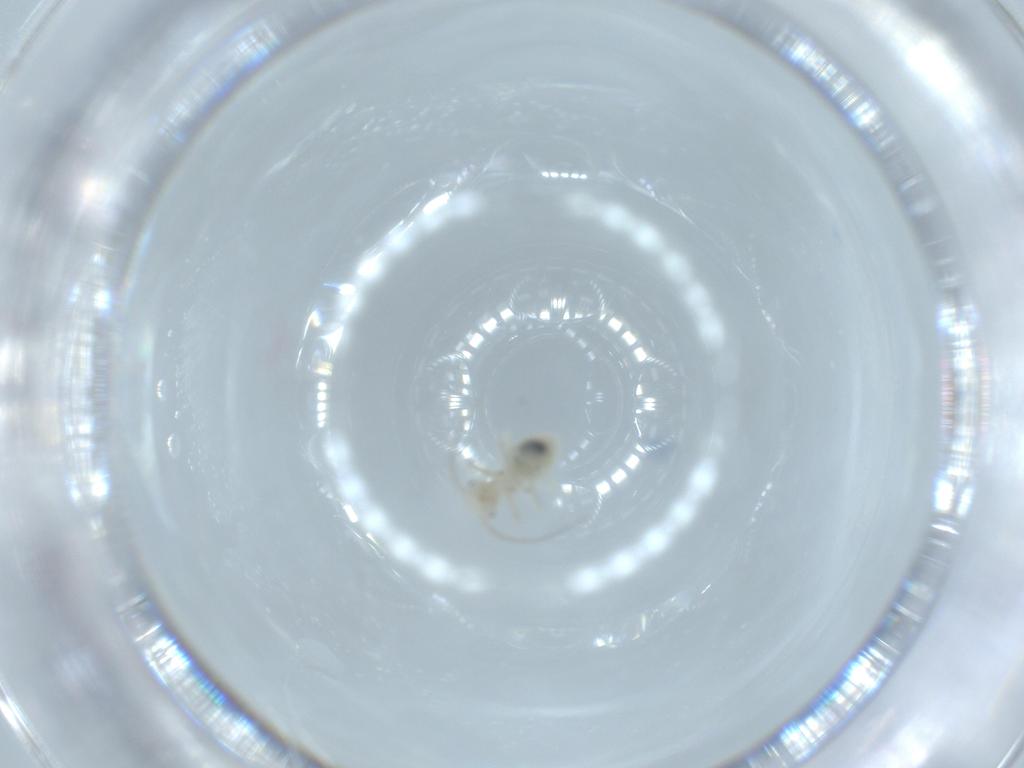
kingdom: Animalia
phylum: Arthropoda
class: Insecta
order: Psocodea
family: Caeciliusidae
